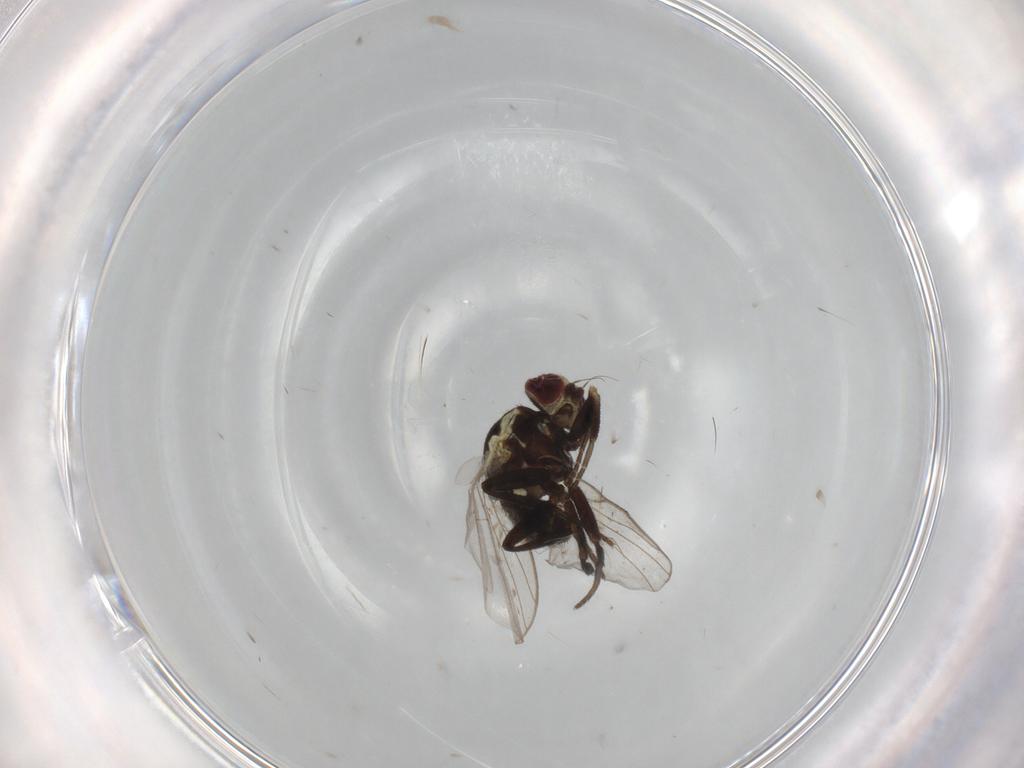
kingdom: Animalia
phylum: Arthropoda
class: Insecta
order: Diptera
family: Agromyzidae
